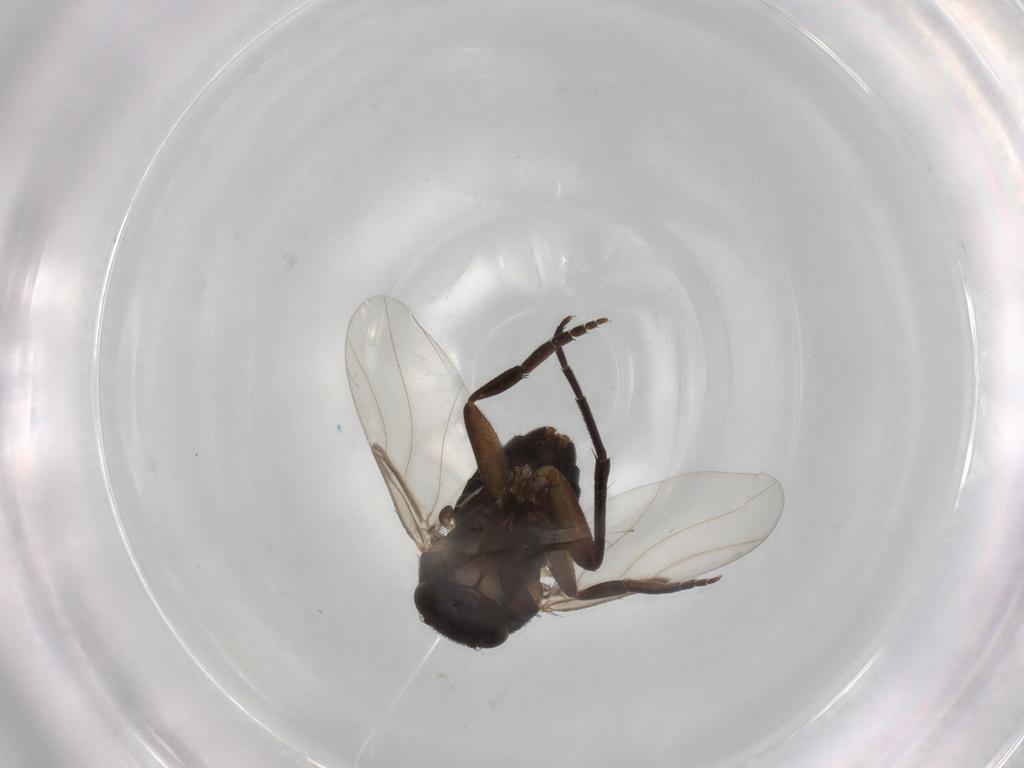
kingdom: Animalia
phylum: Arthropoda
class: Insecta
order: Diptera
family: Phoridae
